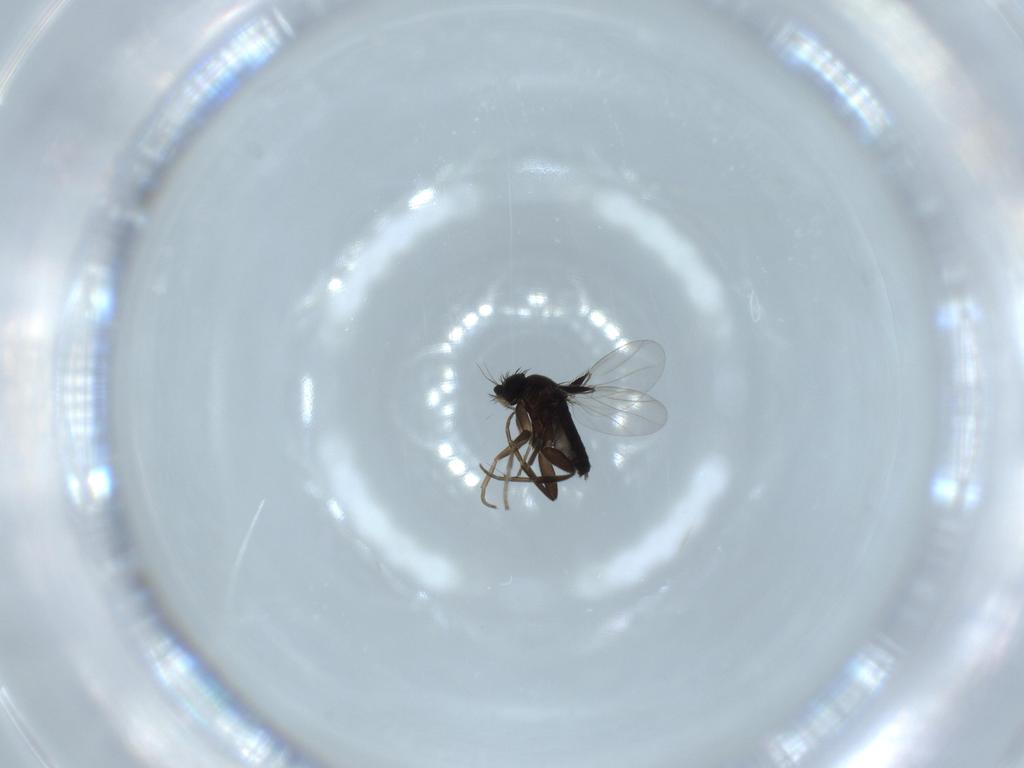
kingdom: Animalia
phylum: Arthropoda
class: Insecta
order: Diptera
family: Phoridae
